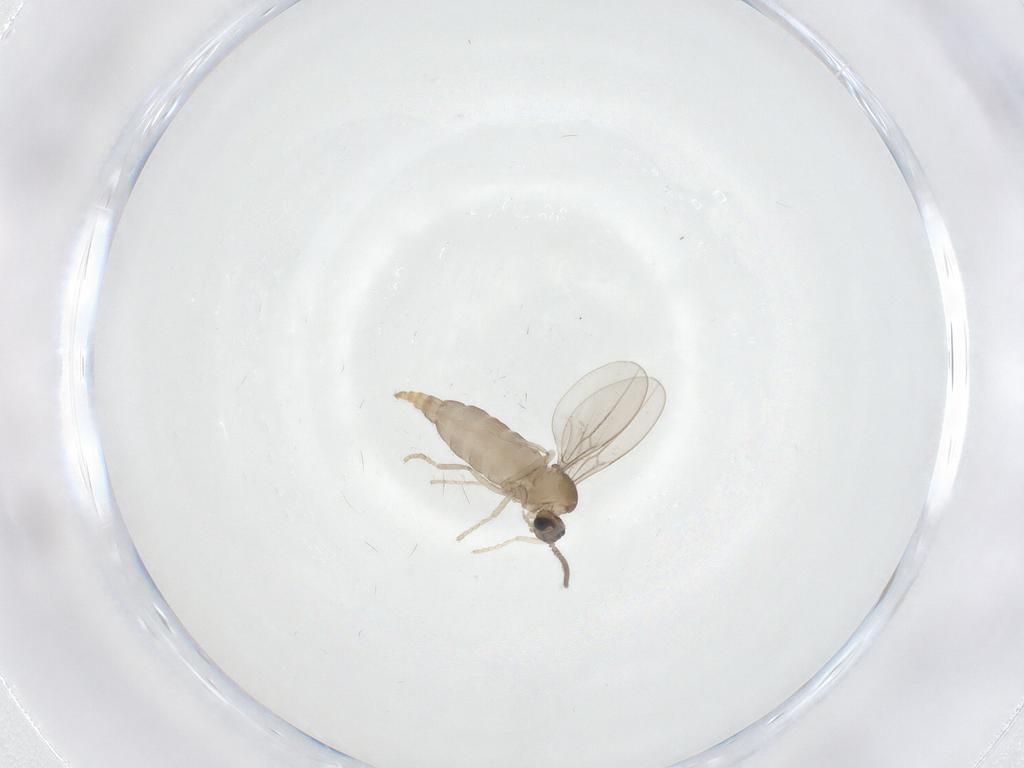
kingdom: Animalia
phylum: Arthropoda
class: Insecta
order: Diptera
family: Cecidomyiidae
